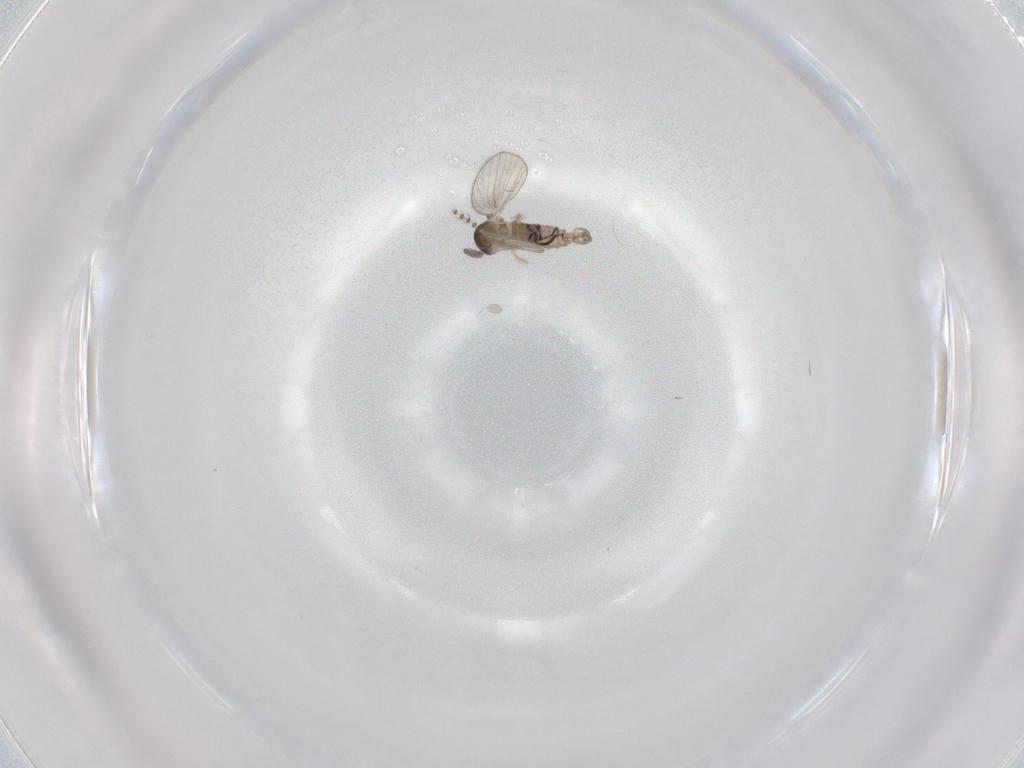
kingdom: Animalia
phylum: Arthropoda
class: Insecta
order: Diptera
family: Psychodidae
